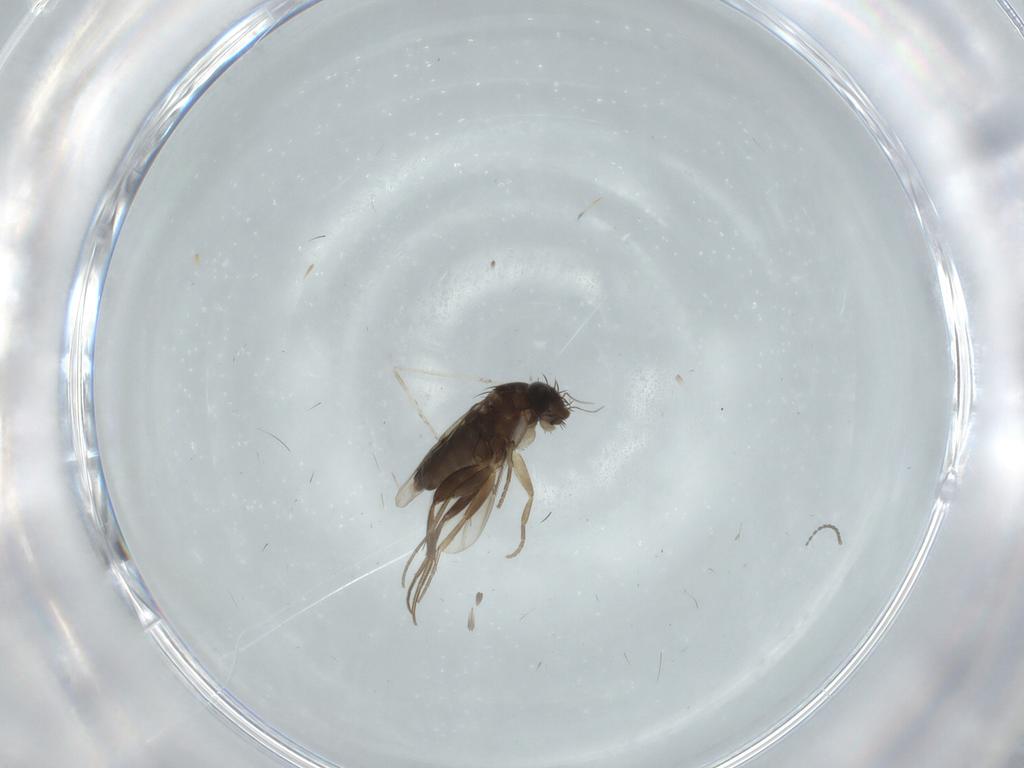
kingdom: Animalia
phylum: Arthropoda
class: Insecta
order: Diptera
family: Phoridae
